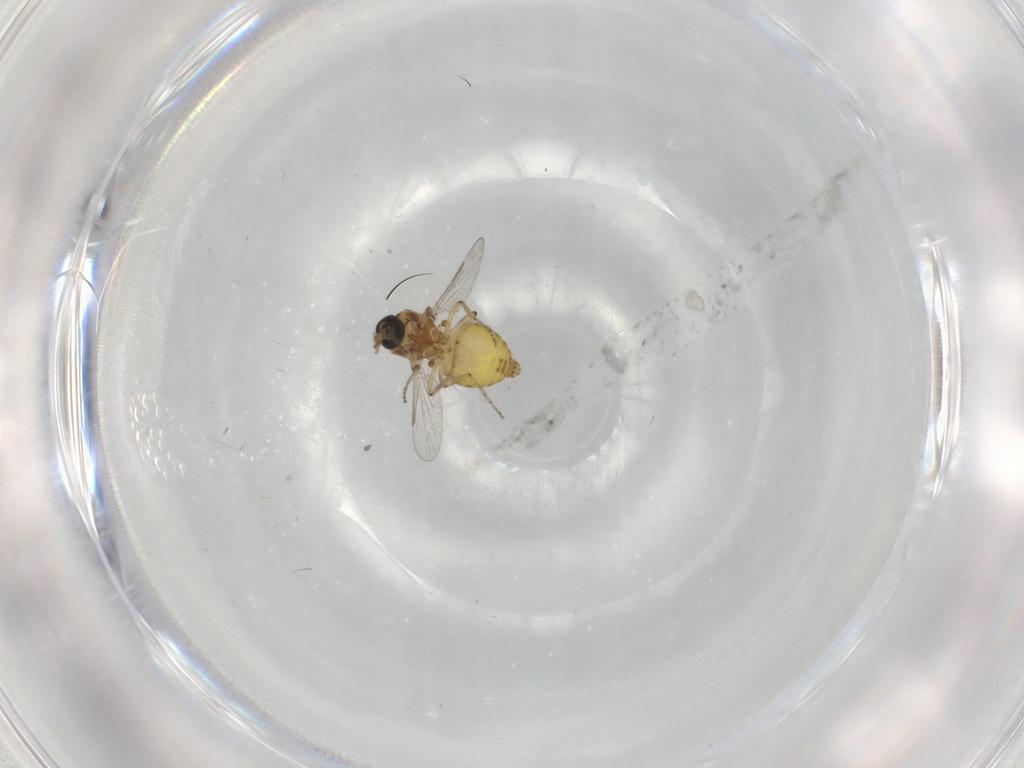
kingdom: Animalia
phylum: Arthropoda
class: Insecta
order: Diptera
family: Ceratopogonidae
